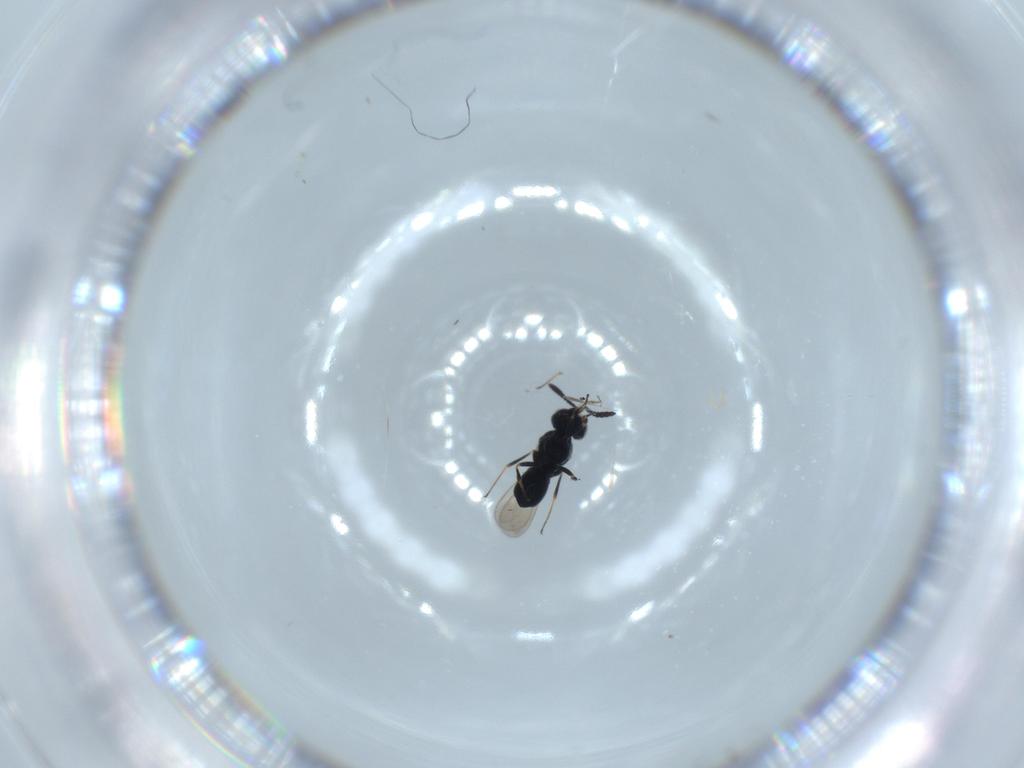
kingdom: Animalia
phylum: Arthropoda
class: Insecta
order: Hymenoptera
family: Scelionidae
